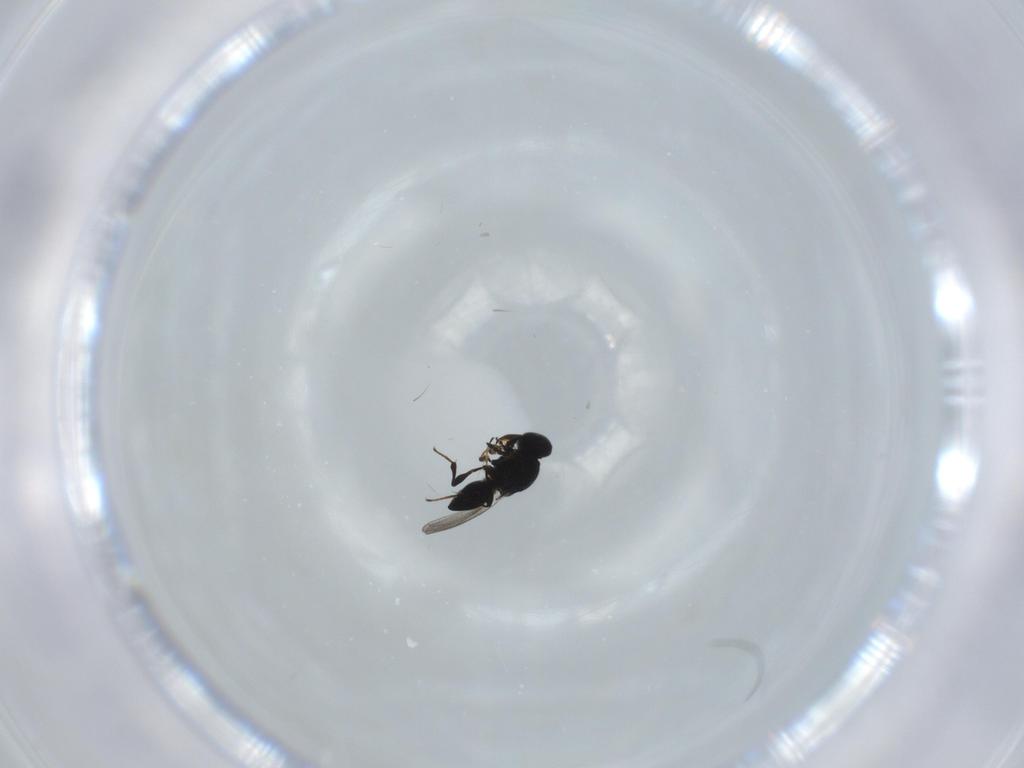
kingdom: Animalia
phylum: Arthropoda
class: Insecta
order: Hymenoptera
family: Platygastridae
